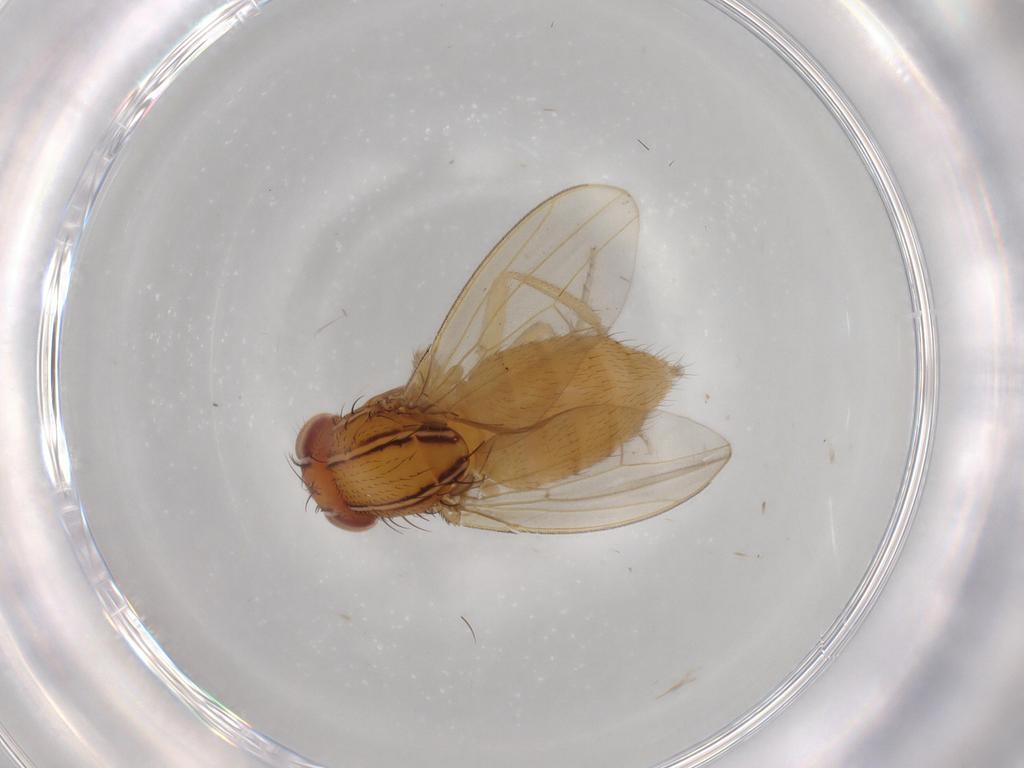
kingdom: Animalia
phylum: Arthropoda
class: Insecta
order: Diptera
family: Drosophilidae
